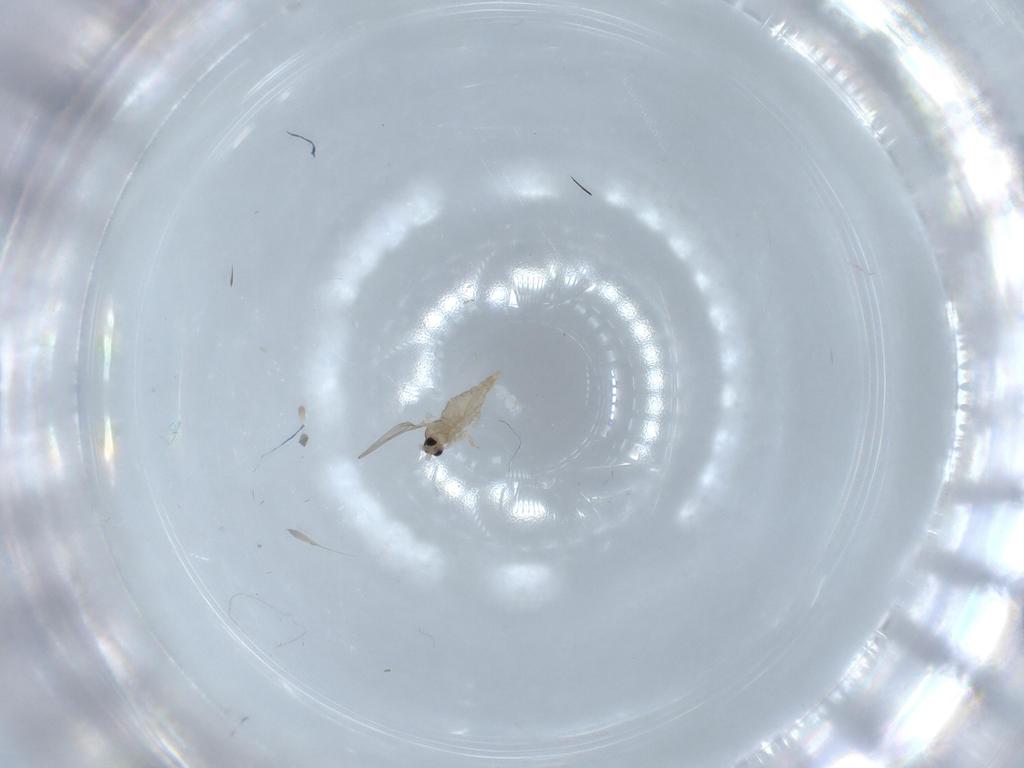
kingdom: Animalia
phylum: Arthropoda
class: Insecta
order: Diptera
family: Cecidomyiidae
